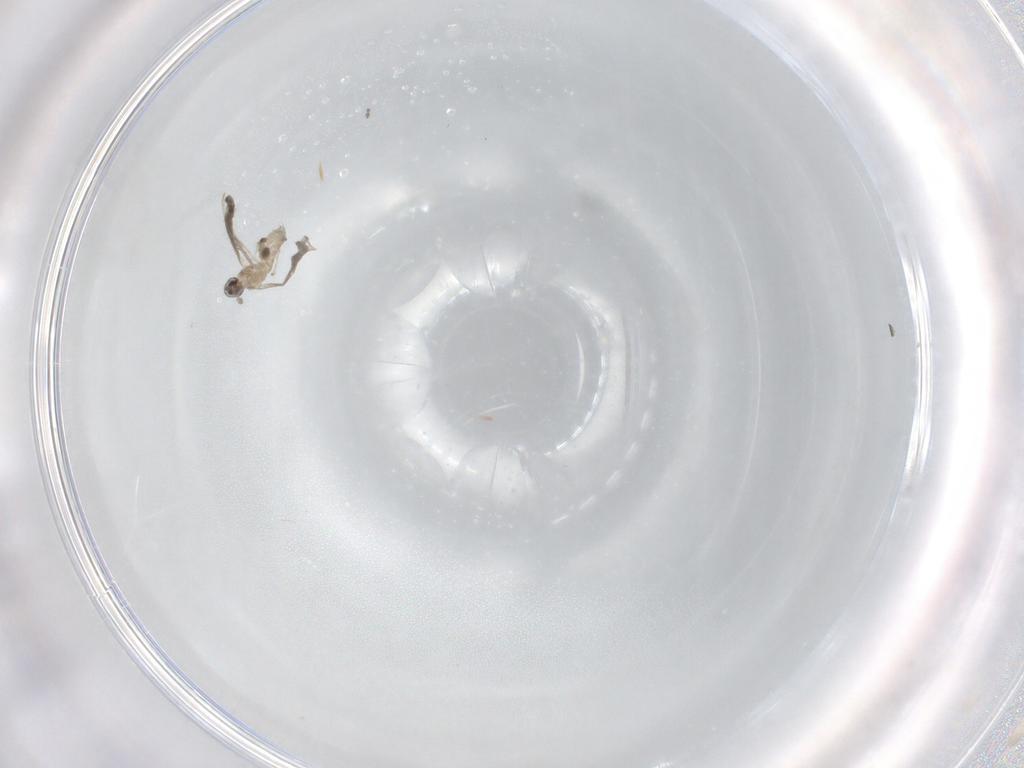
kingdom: Animalia
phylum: Arthropoda
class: Insecta
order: Diptera
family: Cecidomyiidae
